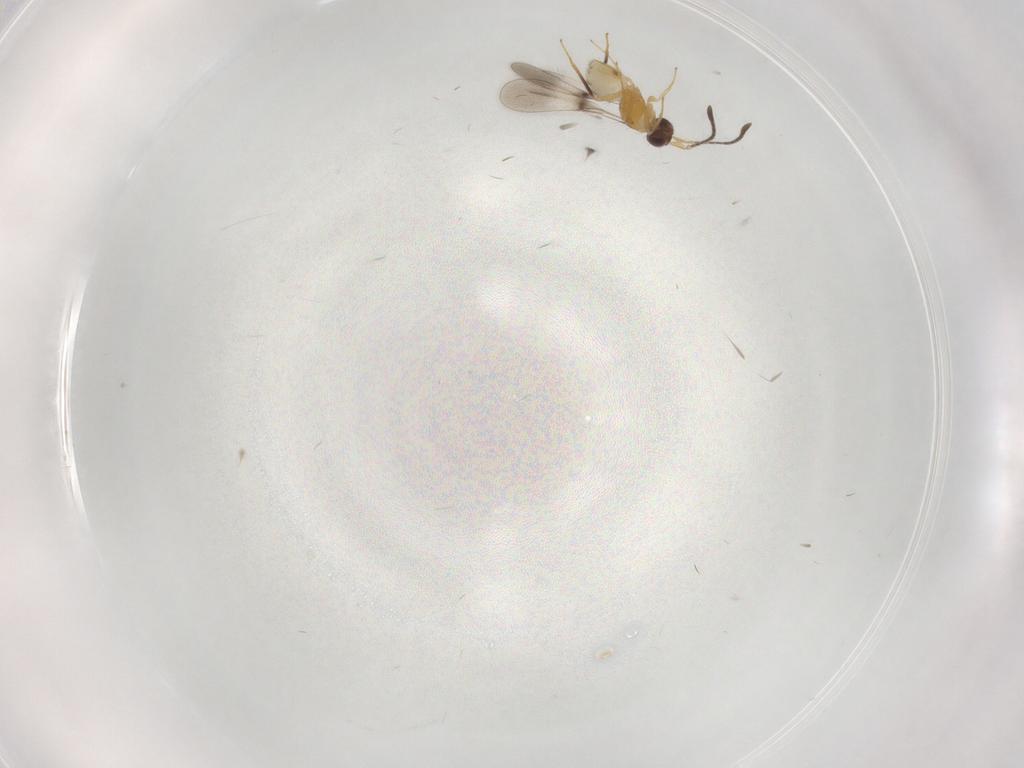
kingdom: Animalia
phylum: Arthropoda
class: Insecta
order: Hymenoptera
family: Mymaridae
